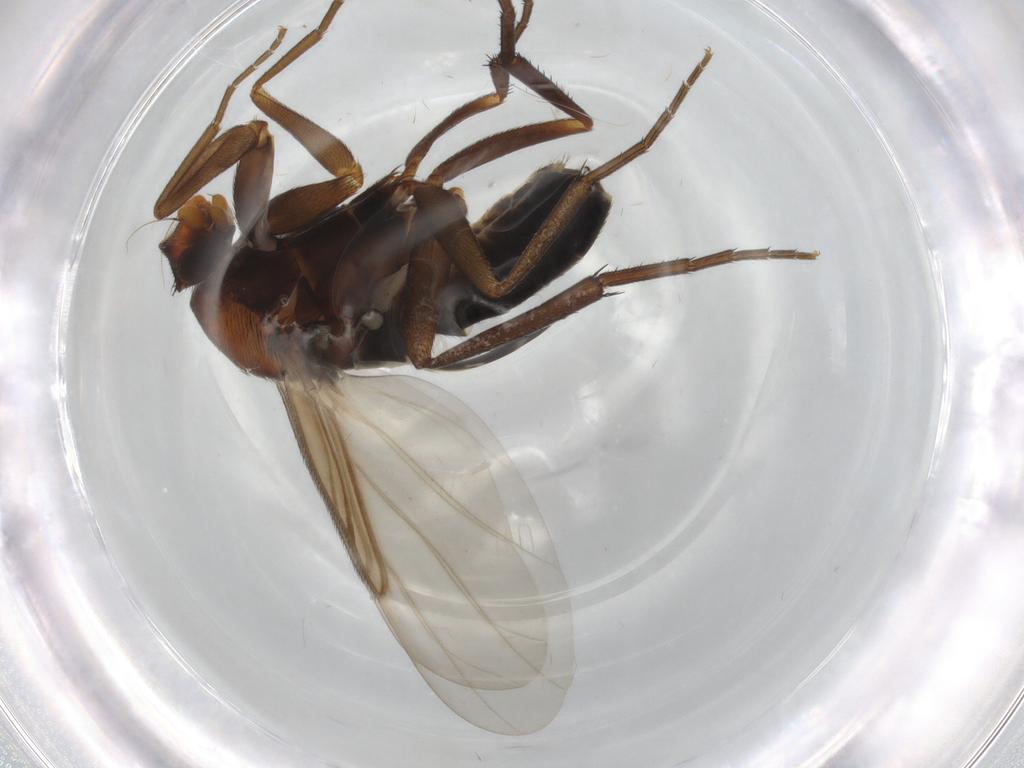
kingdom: Animalia
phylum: Arthropoda
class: Insecta
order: Diptera
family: Phoridae
